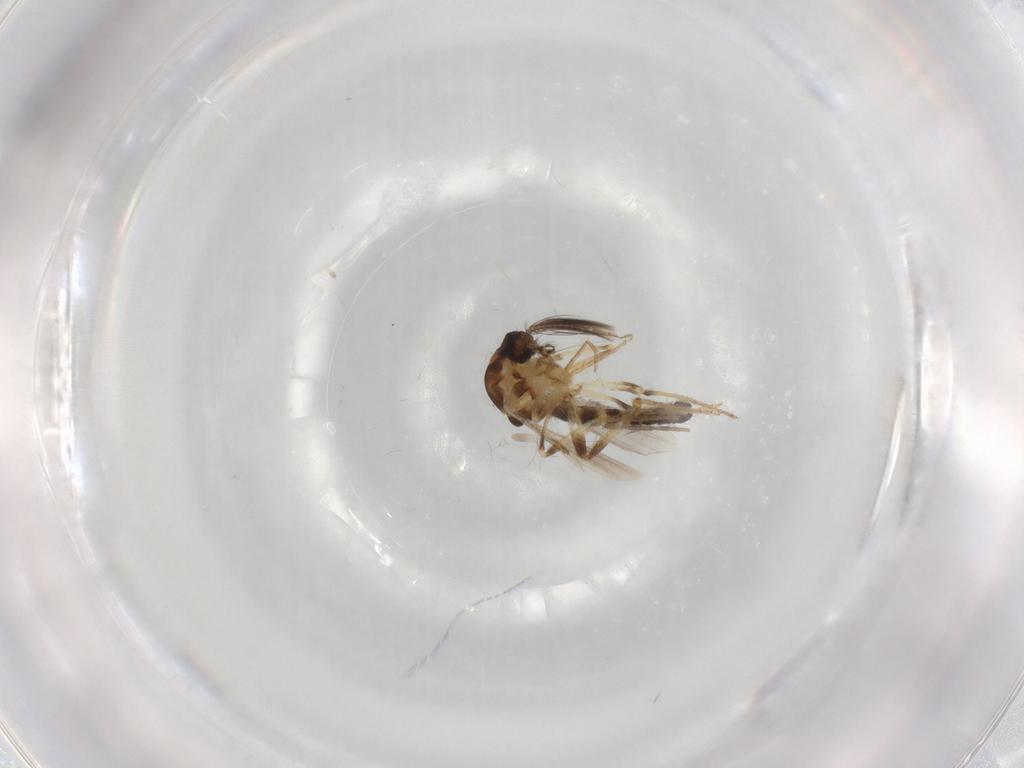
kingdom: Animalia
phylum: Arthropoda
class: Insecta
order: Diptera
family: Ceratopogonidae
